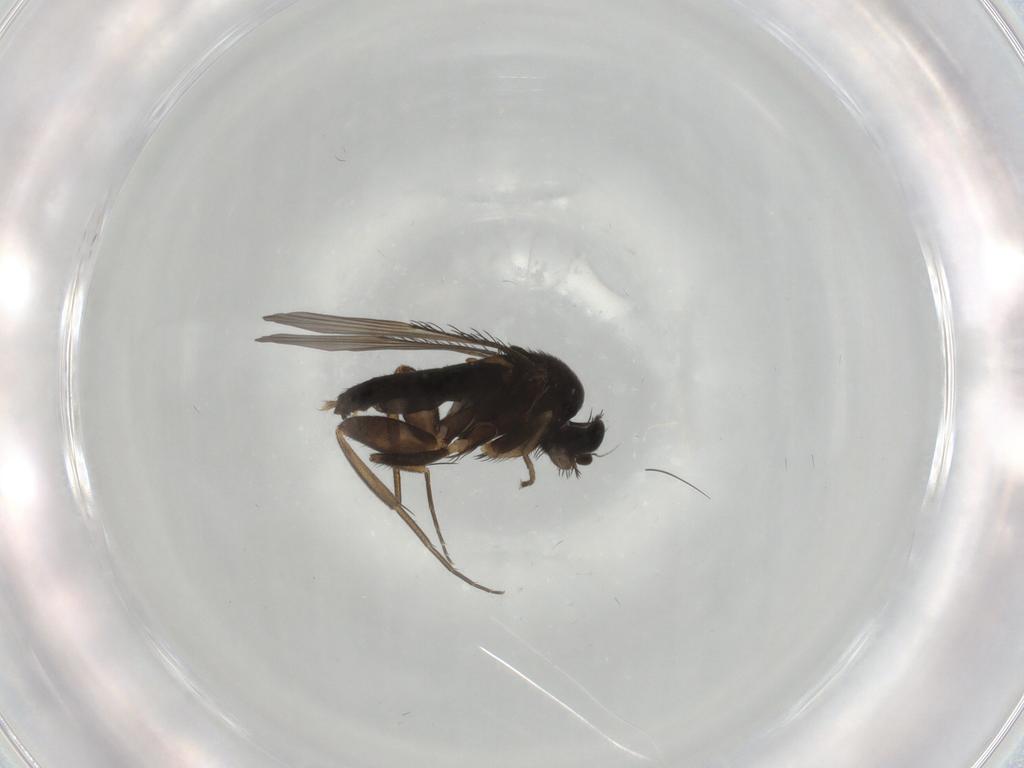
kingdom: Animalia
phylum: Arthropoda
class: Insecta
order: Diptera
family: Phoridae
